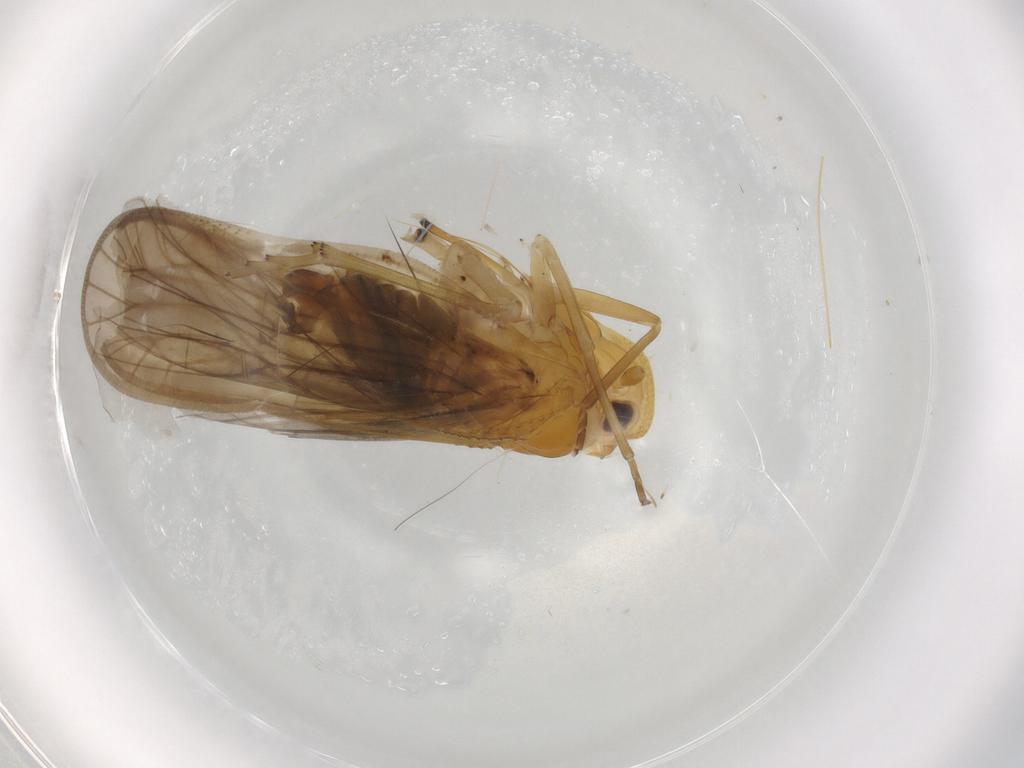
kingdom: Animalia
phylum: Arthropoda
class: Insecta
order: Hemiptera
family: Meenoplidae
